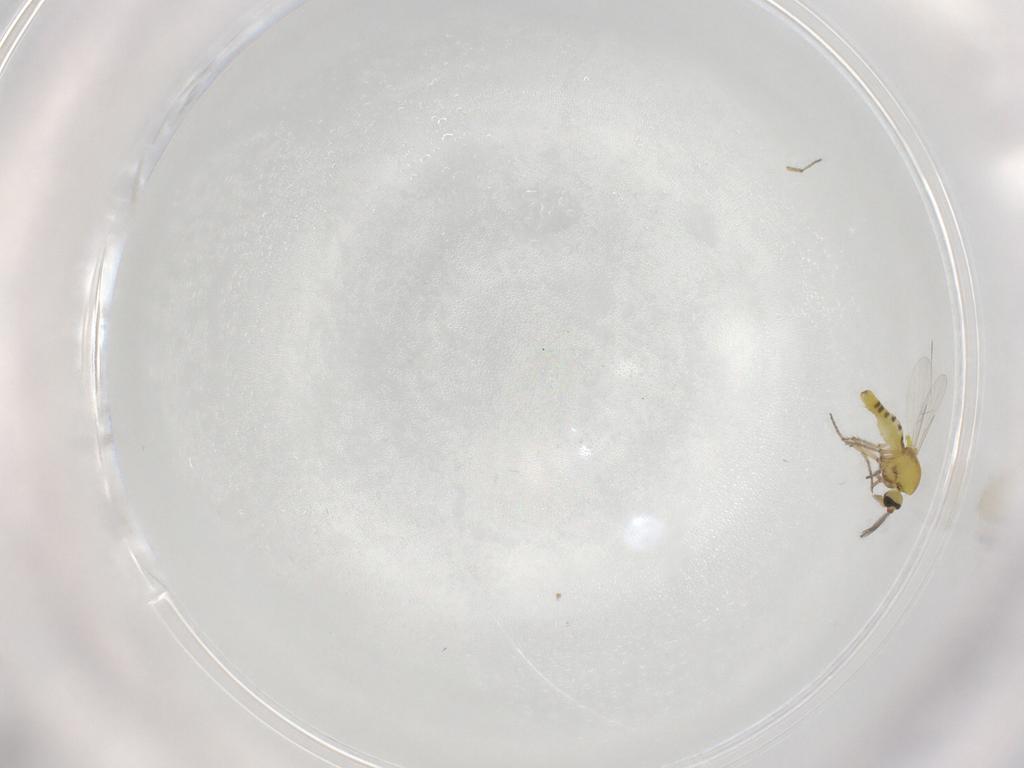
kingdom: Animalia
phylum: Arthropoda
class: Insecta
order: Diptera
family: Ceratopogonidae
